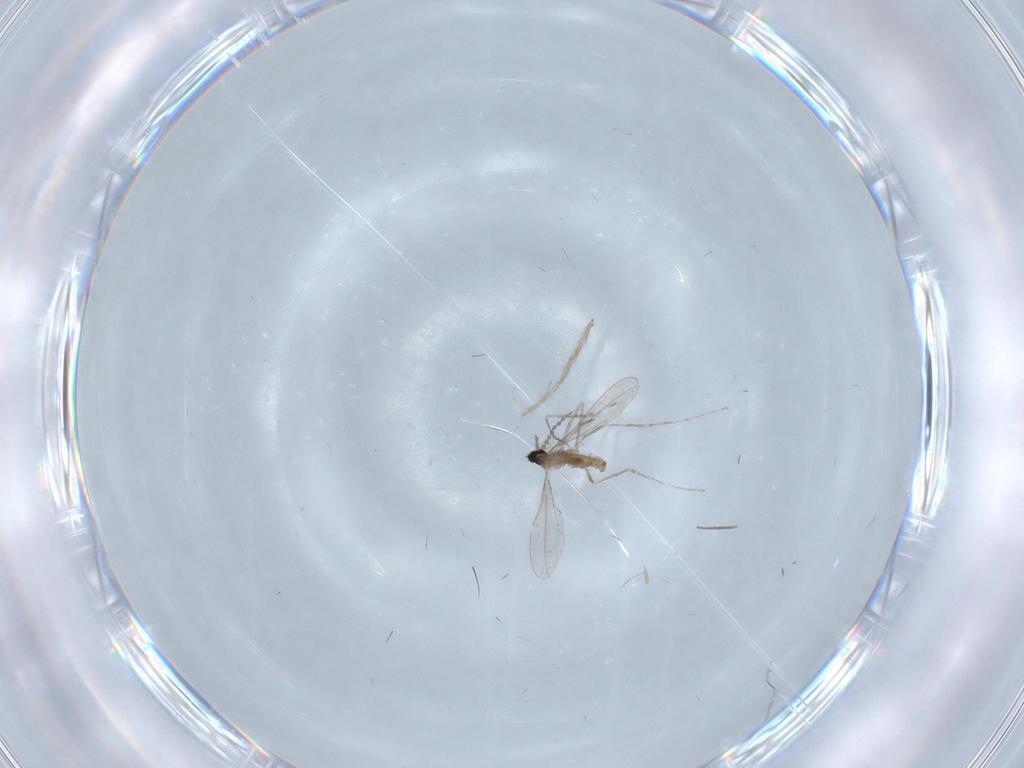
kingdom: Animalia
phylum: Arthropoda
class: Insecta
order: Diptera
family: Cecidomyiidae
